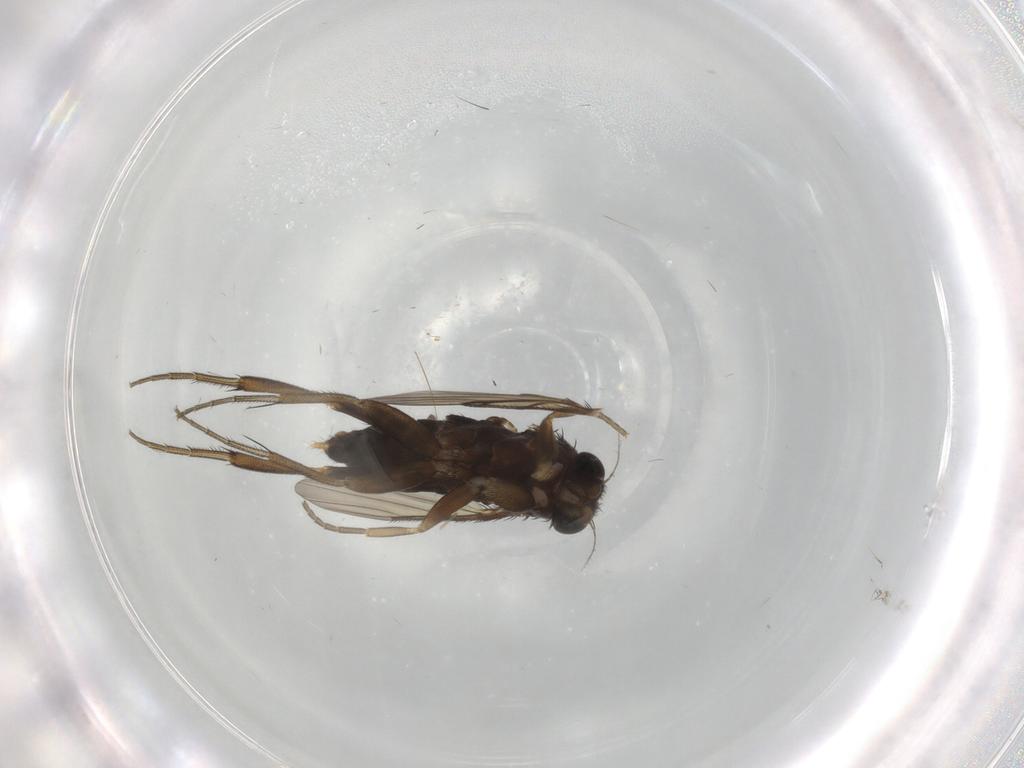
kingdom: Animalia
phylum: Arthropoda
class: Insecta
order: Diptera
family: Phoridae
